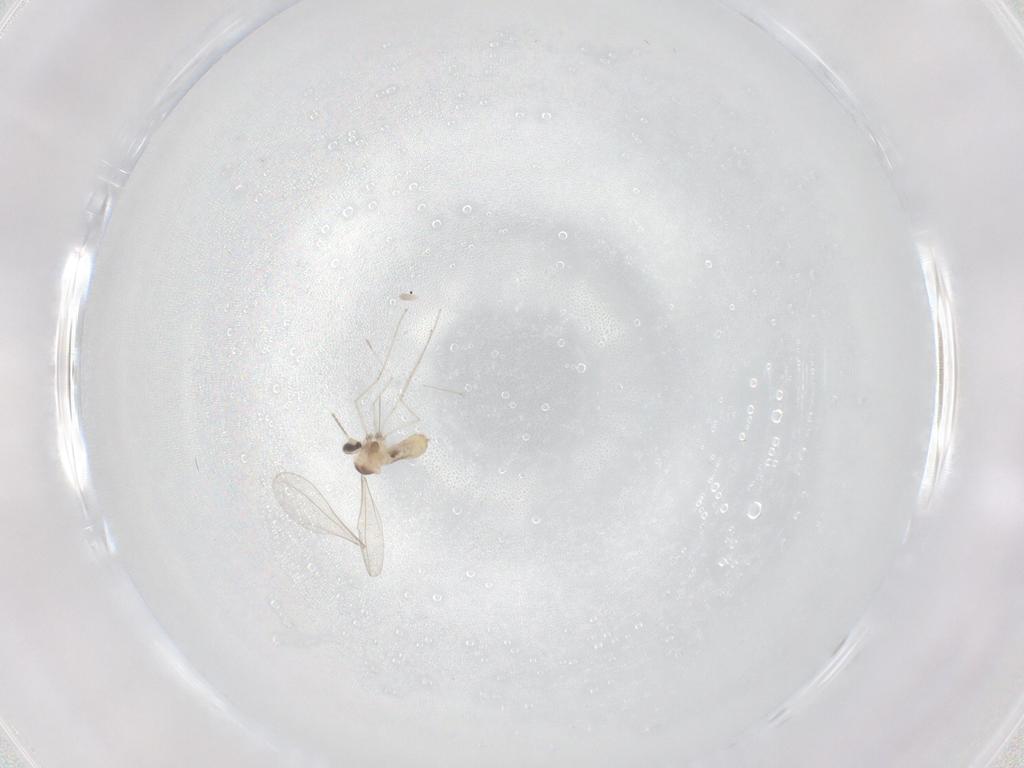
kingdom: Animalia
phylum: Arthropoda
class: Insecta
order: Diptera
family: Cecidomyiidae
